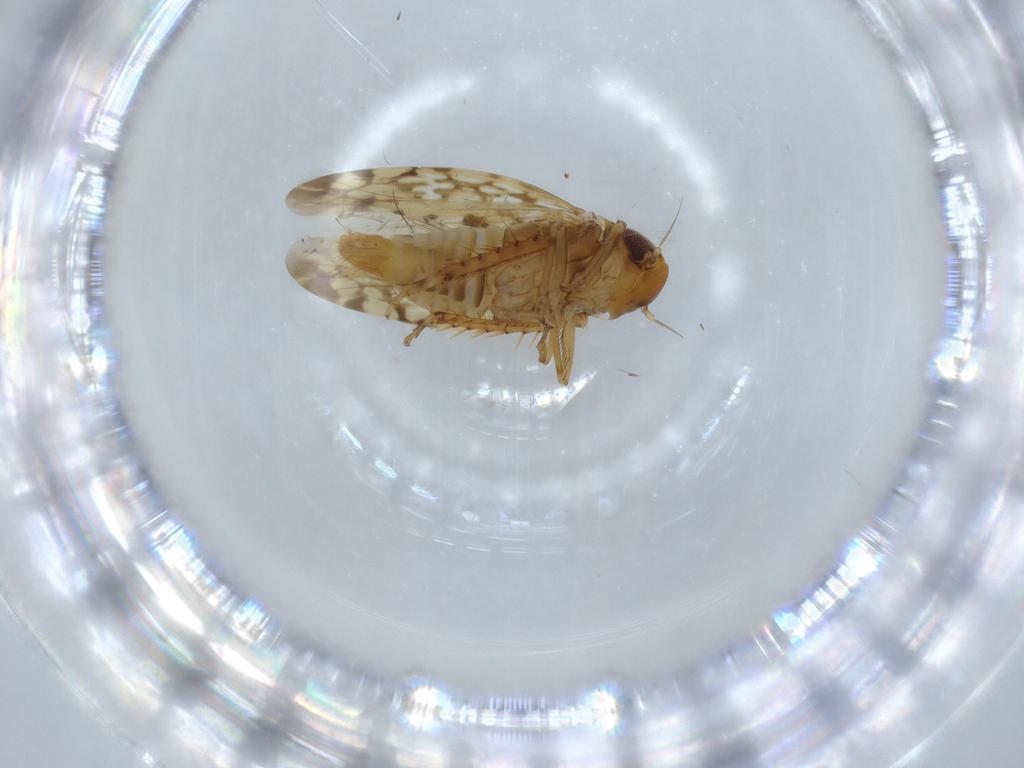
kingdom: Animalia
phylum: Arthropoda
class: Insecta
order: Hemiptera
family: Cicadellidae
